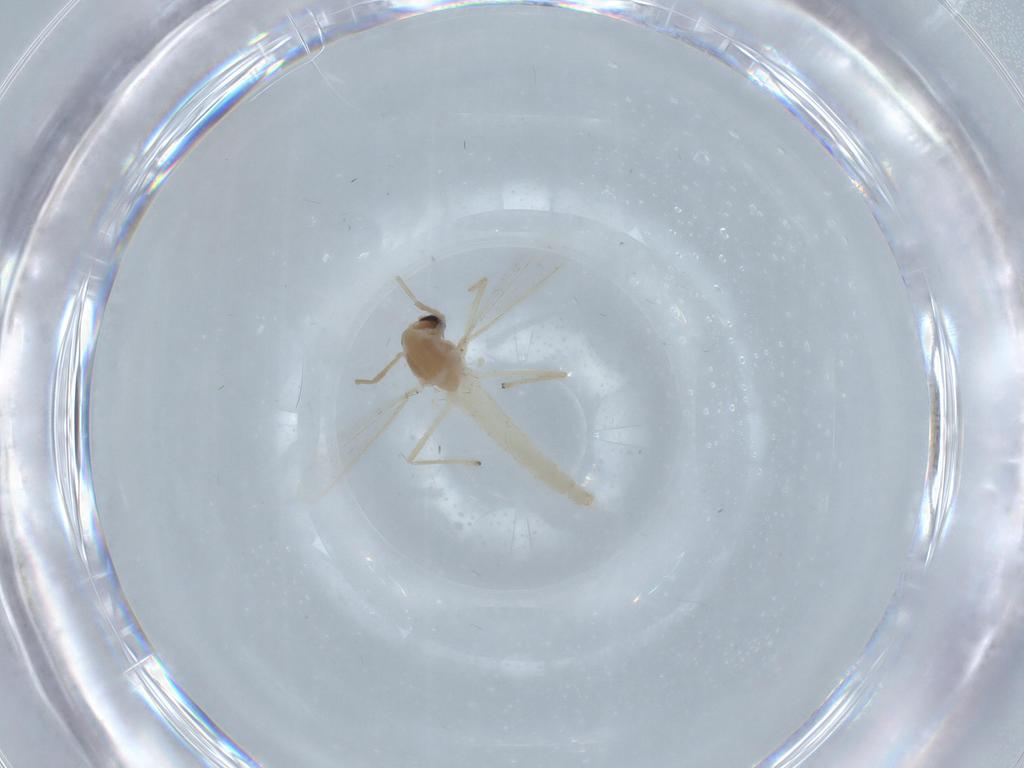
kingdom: Animalia
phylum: Arthropoda
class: Insecta
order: Diptera
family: Chironomidae
